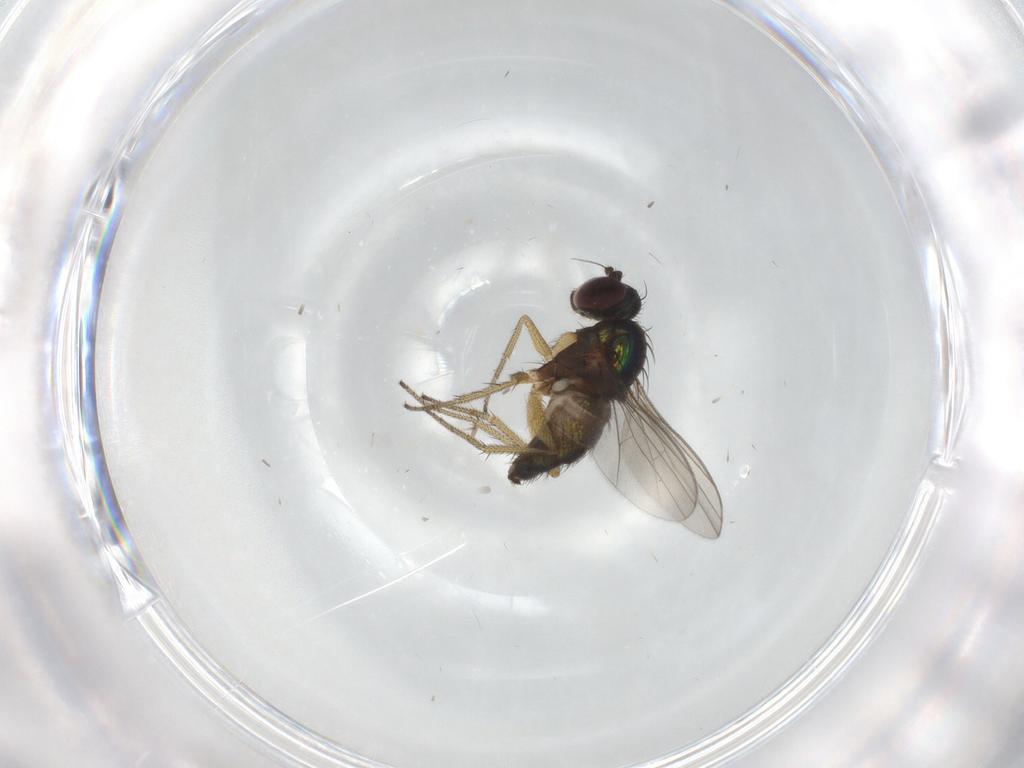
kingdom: Animalia
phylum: Arthropoda
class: Insecta
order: Diptera
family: Dolichopodidae
